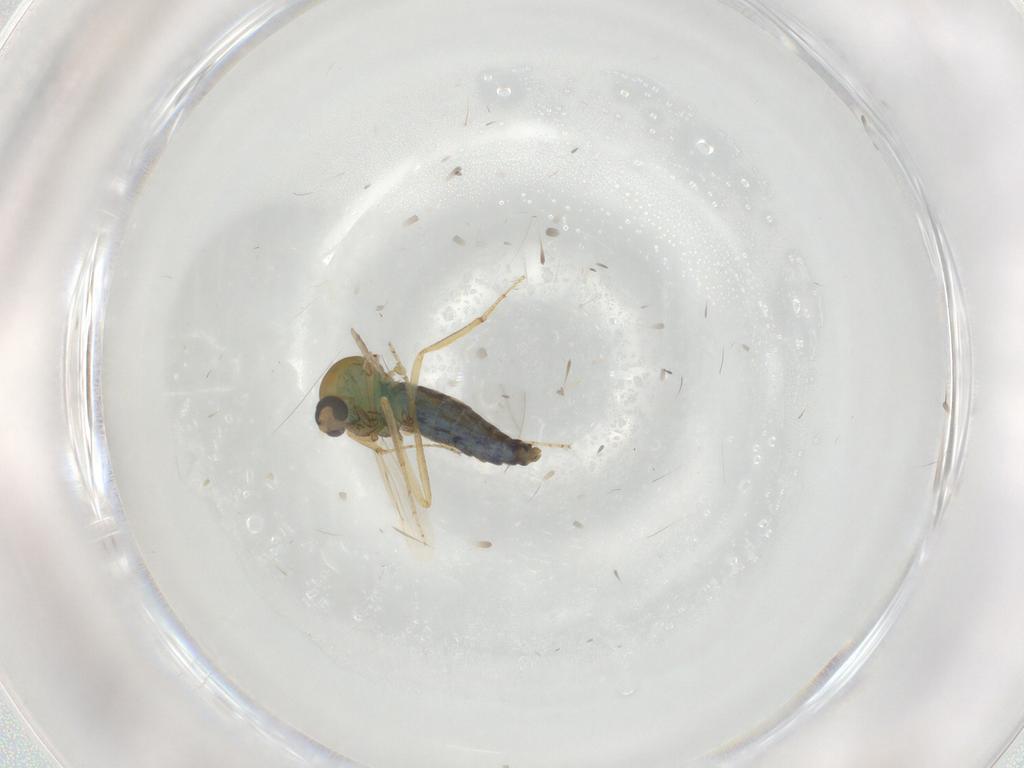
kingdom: Animalia
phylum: Arthropoda
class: Insecta
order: Diptera
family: Ceratopogonidae
